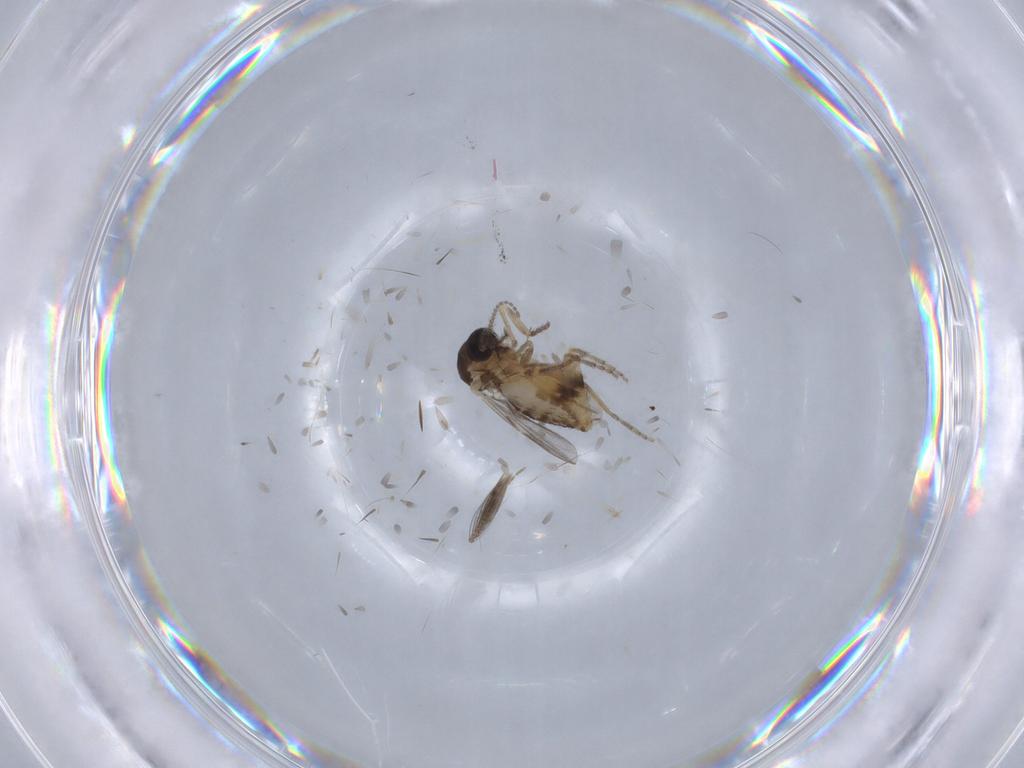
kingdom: Animalia
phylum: Arthropoda
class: Insecta
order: Diptera
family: Ceratopogonidae
